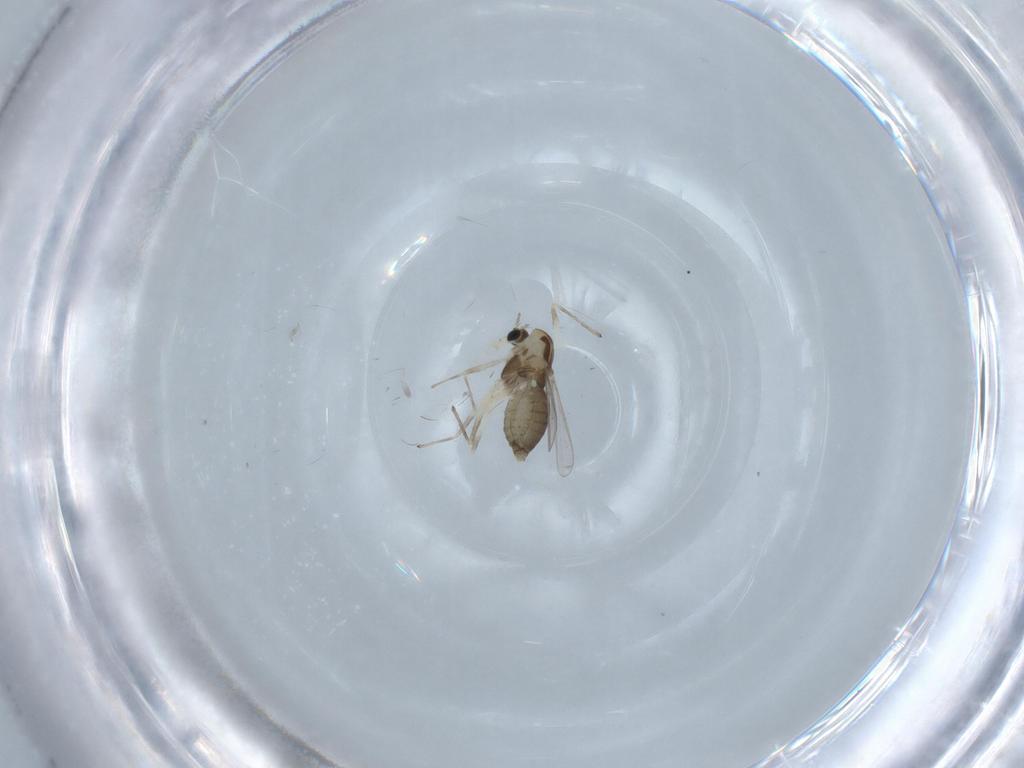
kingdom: Animalia
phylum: Arthropoda
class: Insecta
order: Diptera
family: Chironomidae
